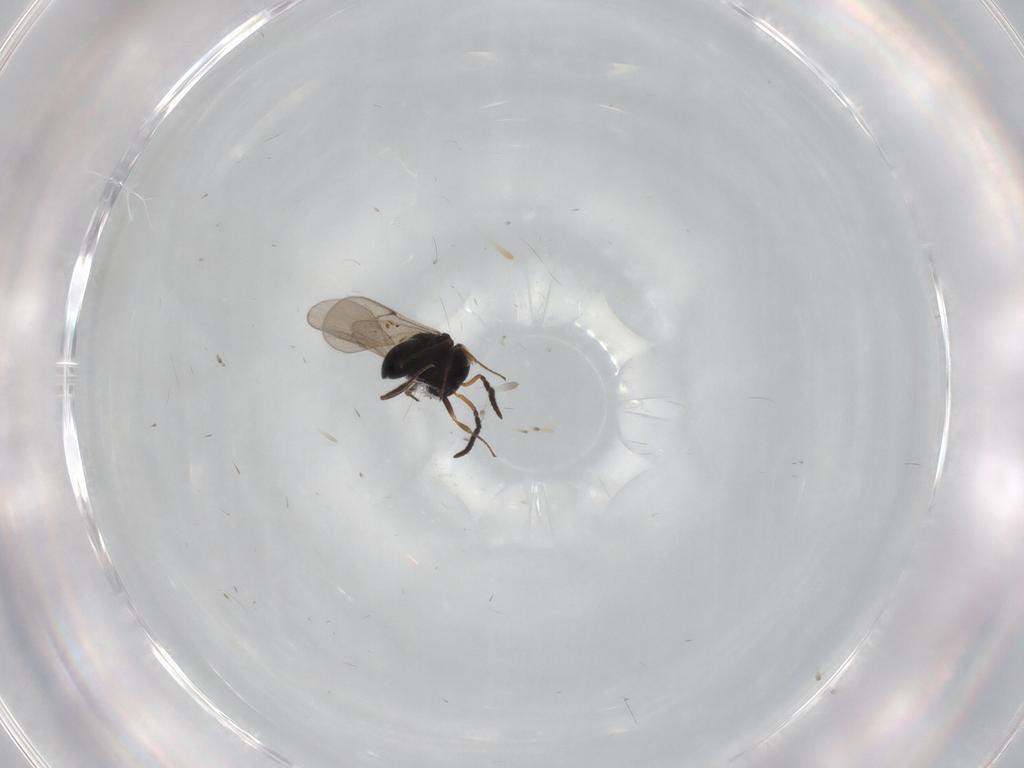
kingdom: Animalia
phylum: Arthropoda
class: Insecta
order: Hymenoptera
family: Scelionidae
